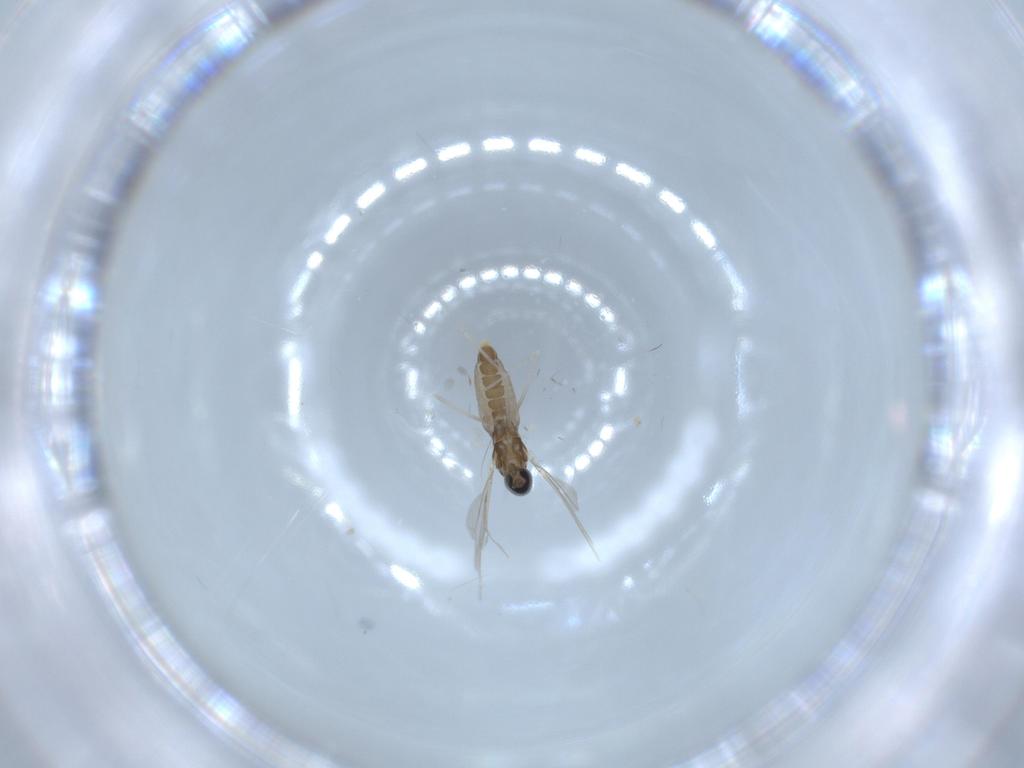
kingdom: Animalia
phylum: Arthropoda
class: Insecta
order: Diptera
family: Cecidomyiidae
